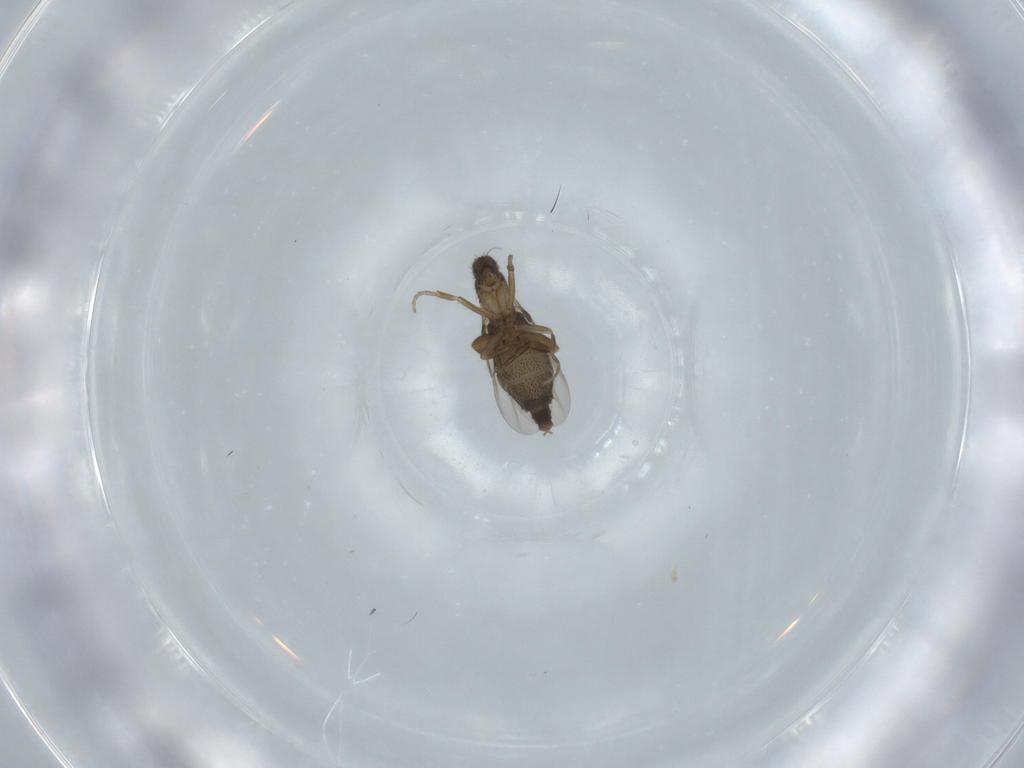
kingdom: Animalia
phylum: Arthropoda
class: Insecta
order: Diptera
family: Phoridae
